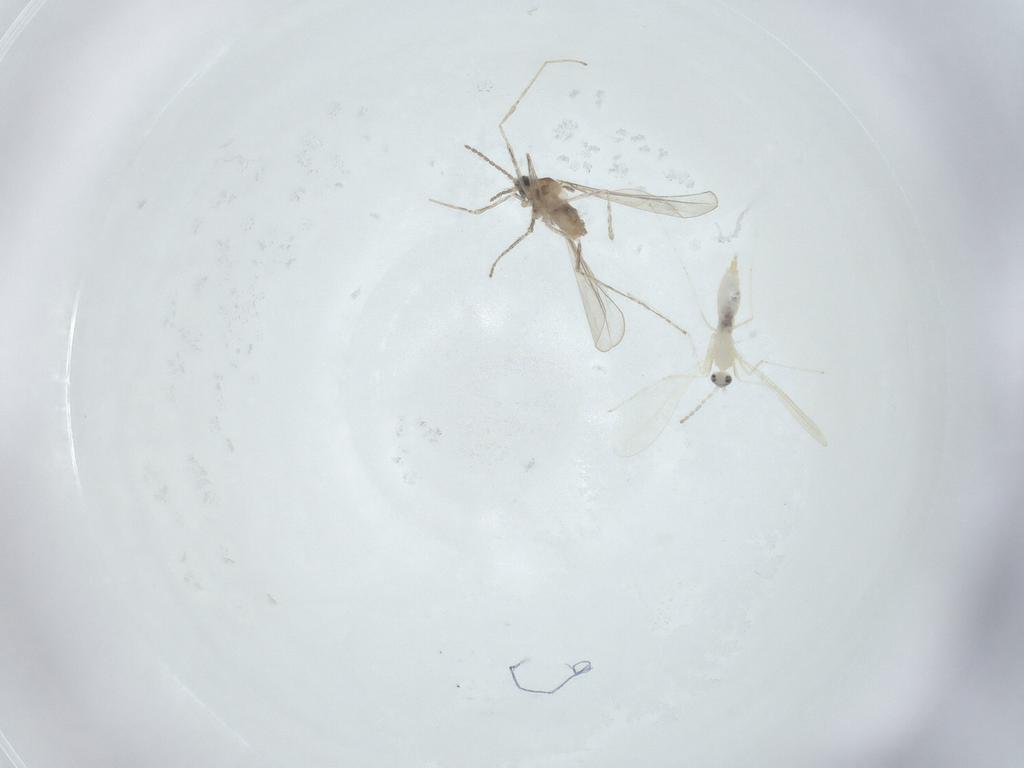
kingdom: Animalia
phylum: Arthropoda
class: Insecta
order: Diptera
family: Cecidomyiidae
